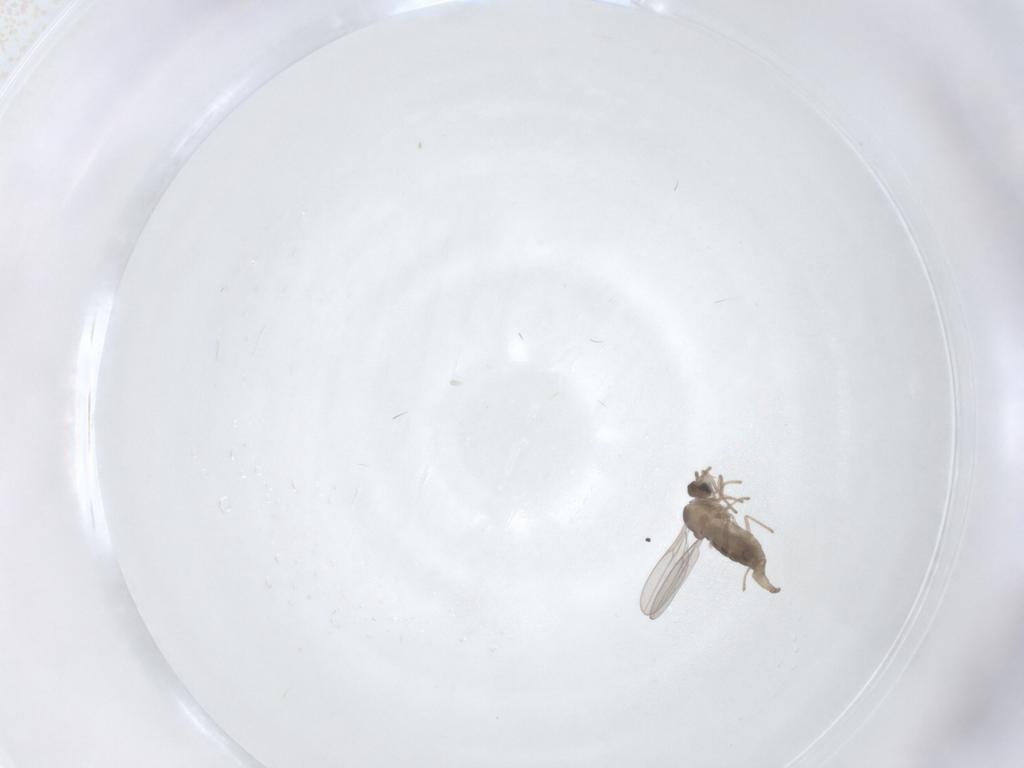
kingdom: Animalia
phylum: Arthropoda
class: Insecta
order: Diptera
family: Cecidomyiidae
